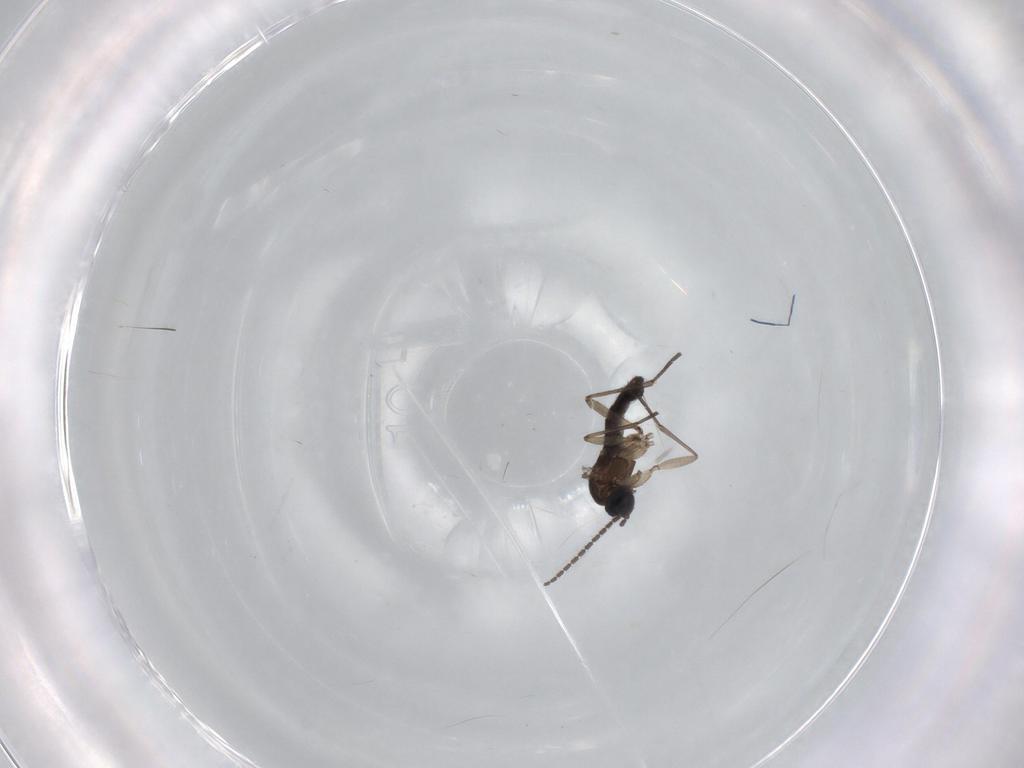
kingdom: Animalia
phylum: Arthropoda
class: Insecta
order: Diptera
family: Sciaridae
